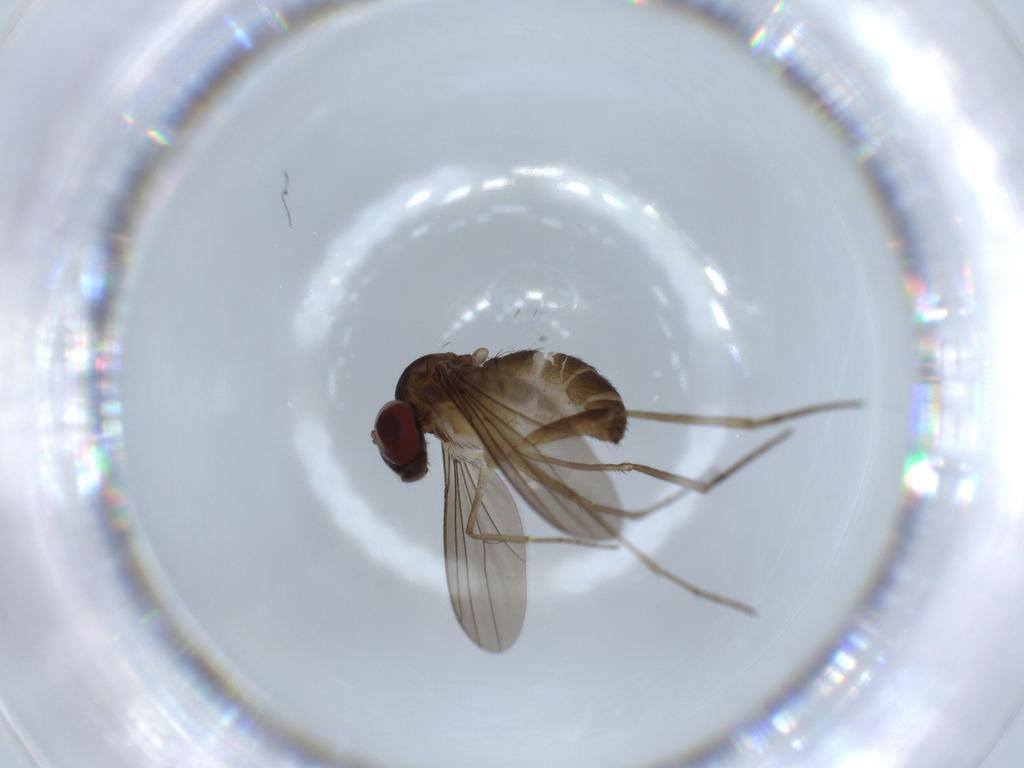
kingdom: Animalia
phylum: Arthropoda
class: Insecta
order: Diptera
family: Dolichopodidae
